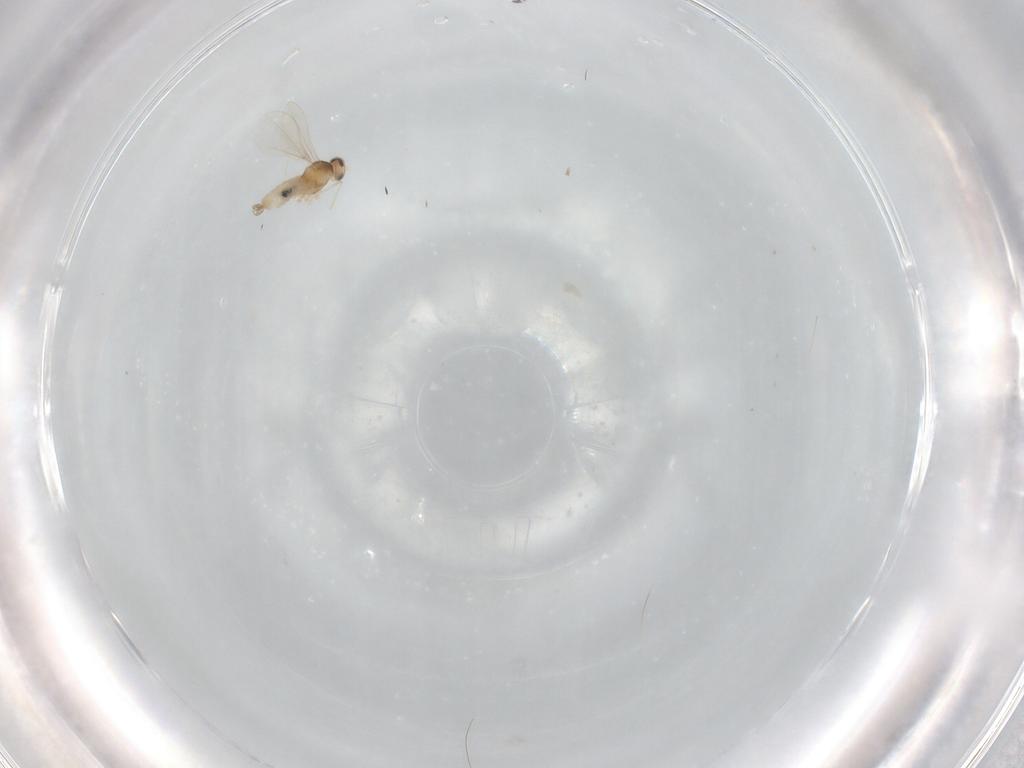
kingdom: Animalia
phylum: Arthropoda
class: Insecta
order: Diptera
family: Cecidomyiidae
